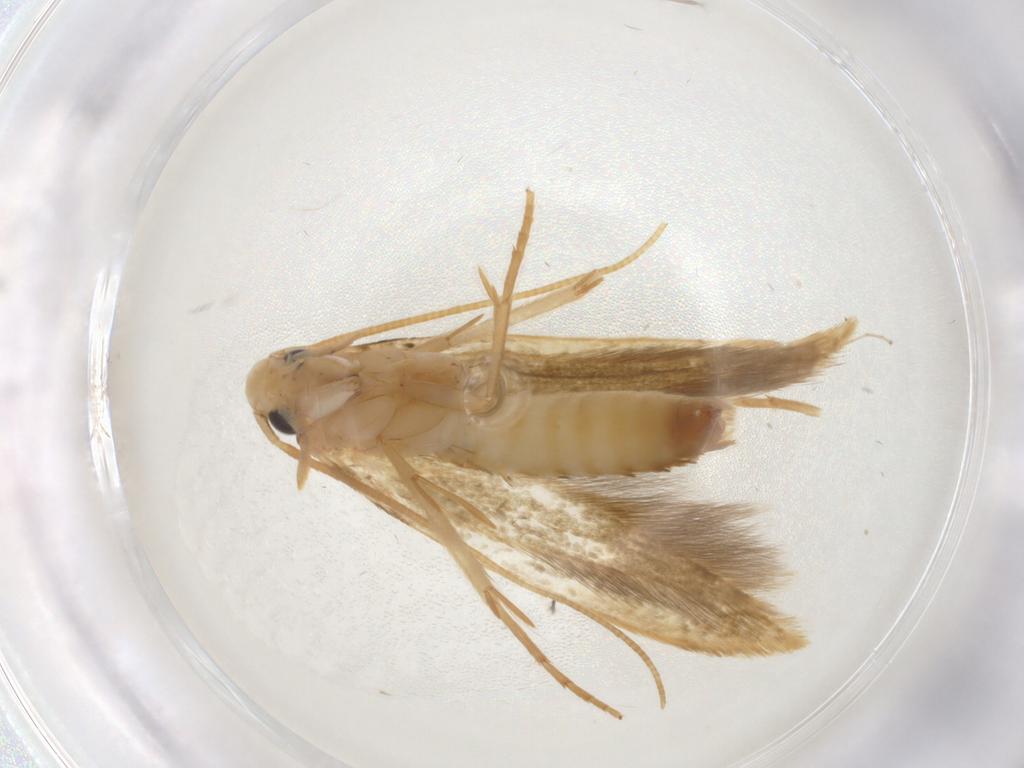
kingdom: Animalia
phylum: Arthropoda
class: Insecta
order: Lepidoptera
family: Tineidae
